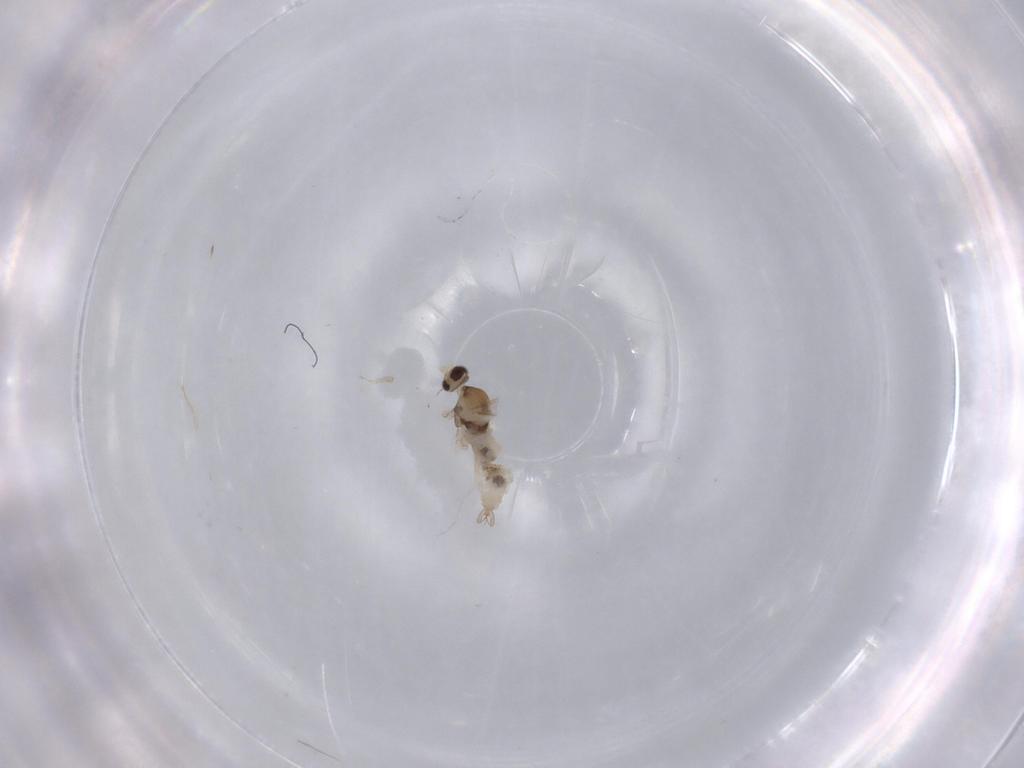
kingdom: Animalia
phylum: Arthropoda
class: Insecta
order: Diptera
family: Cecidomyiidae
